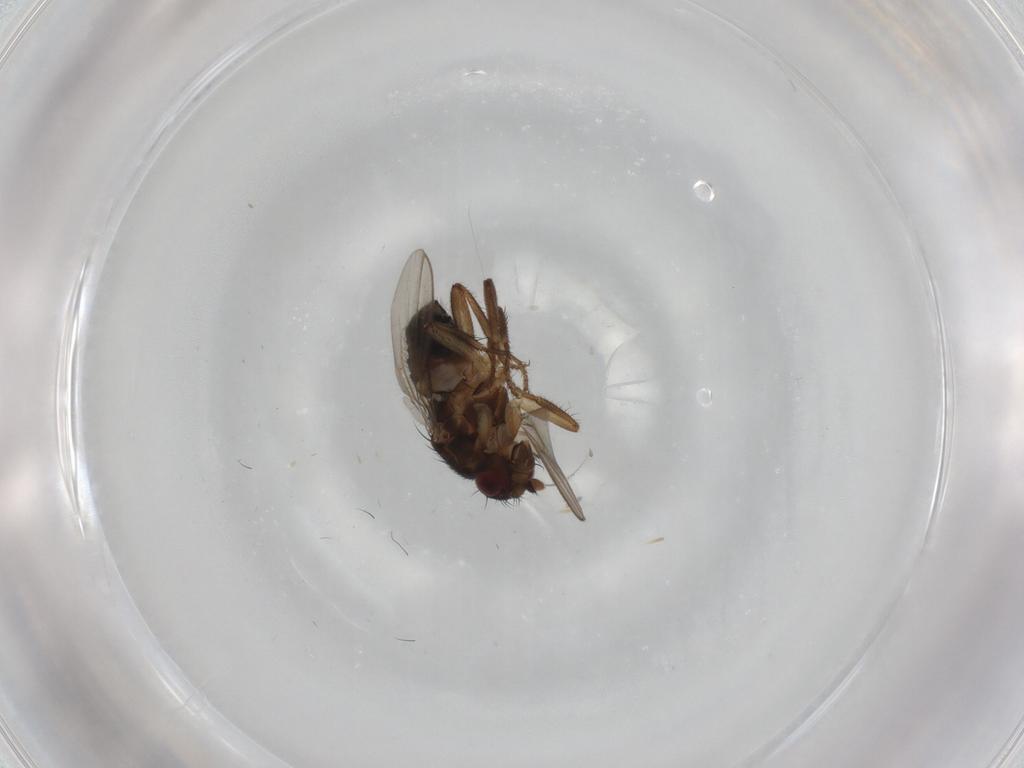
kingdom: Animalia
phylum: Arthropoda
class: Insecta
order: Diptera
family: Sphaeroceridae
